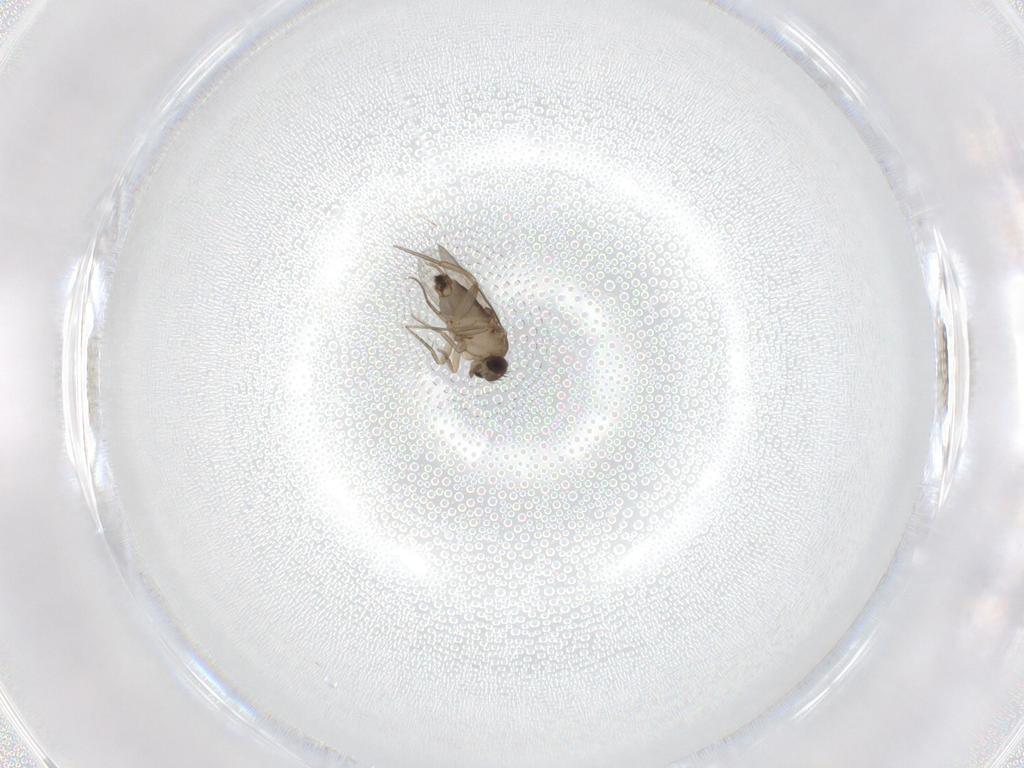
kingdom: Animalia
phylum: Arthropoda
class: Insecta
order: Diptera
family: Phoridae
